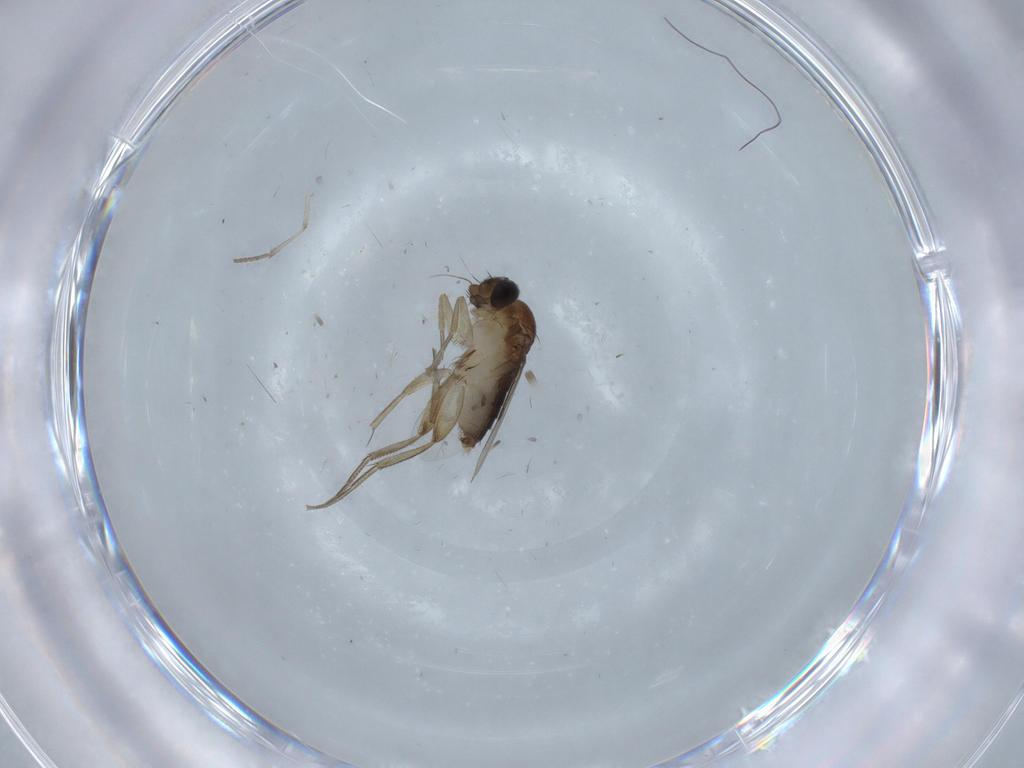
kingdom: Animalia
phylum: Arthropoda
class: Insecta
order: Diptera
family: Psychodidae
